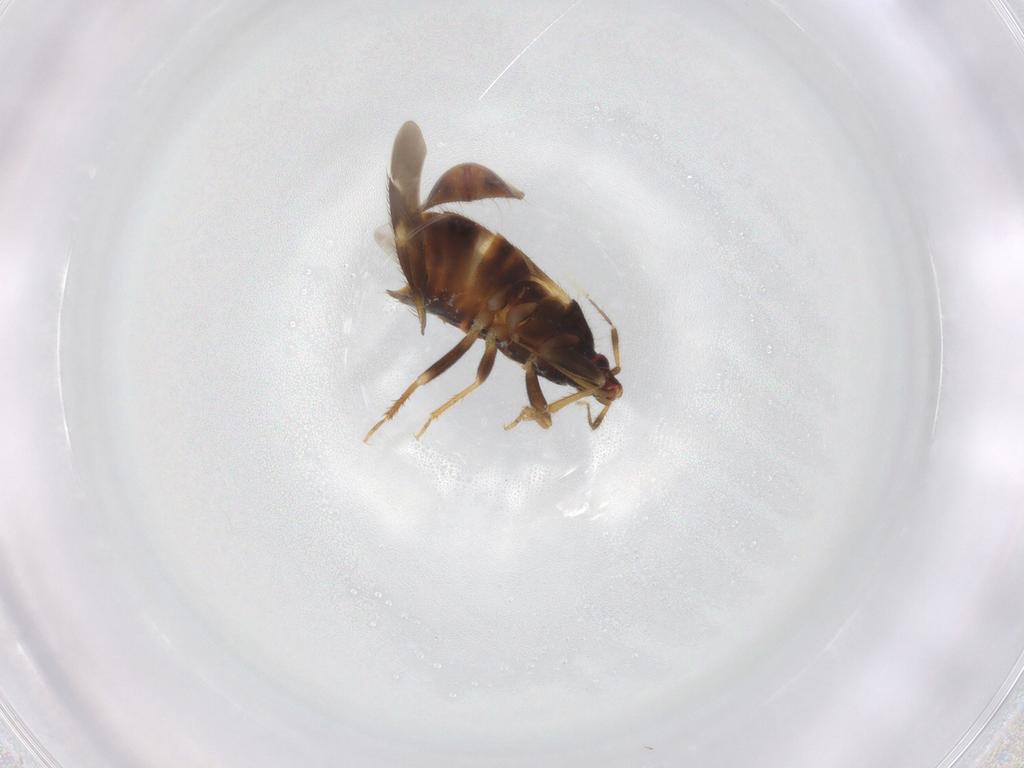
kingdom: Animalia
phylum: Arthropoda
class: Insecta
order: Hemiptera
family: Lasiochilidae
